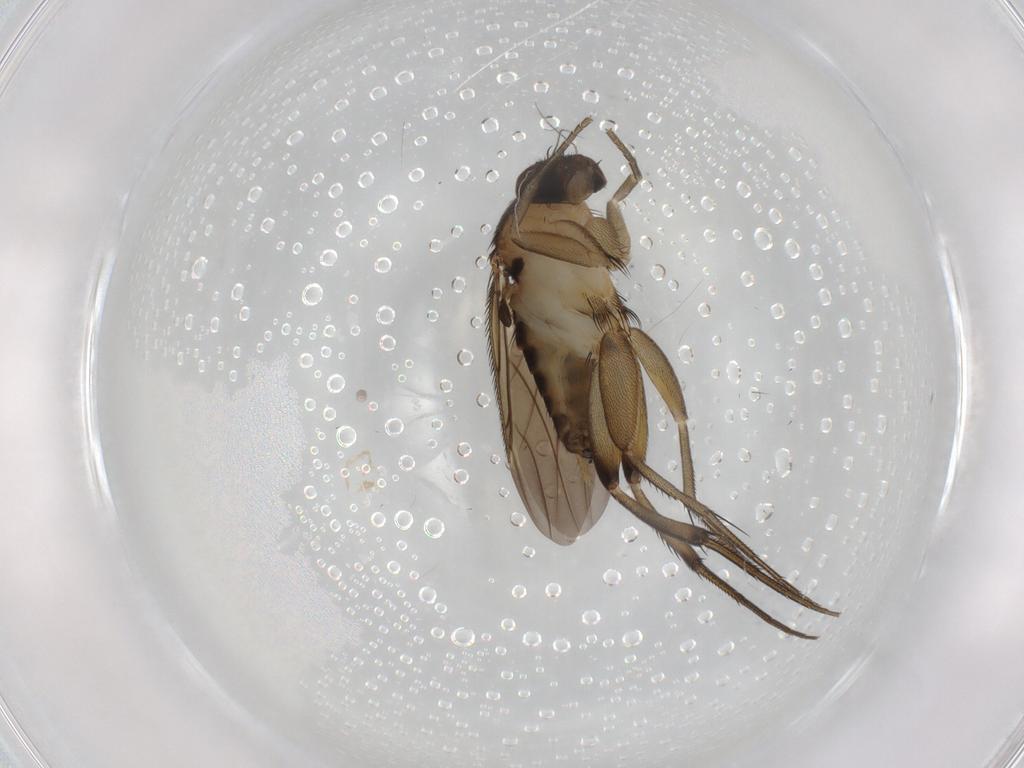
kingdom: Animalia
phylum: Arthropoda
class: Insecta
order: Diptera
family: Phoridae
